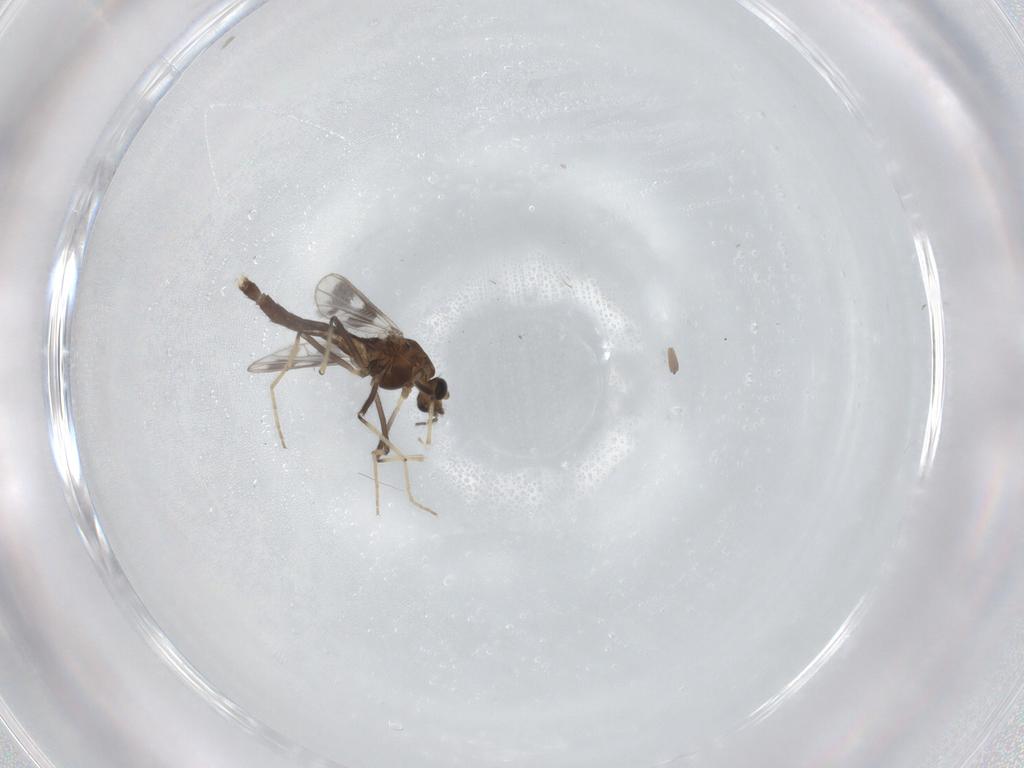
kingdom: Animalia
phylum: Arthropoda
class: Insecta
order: Diptera
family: Chironomidae
